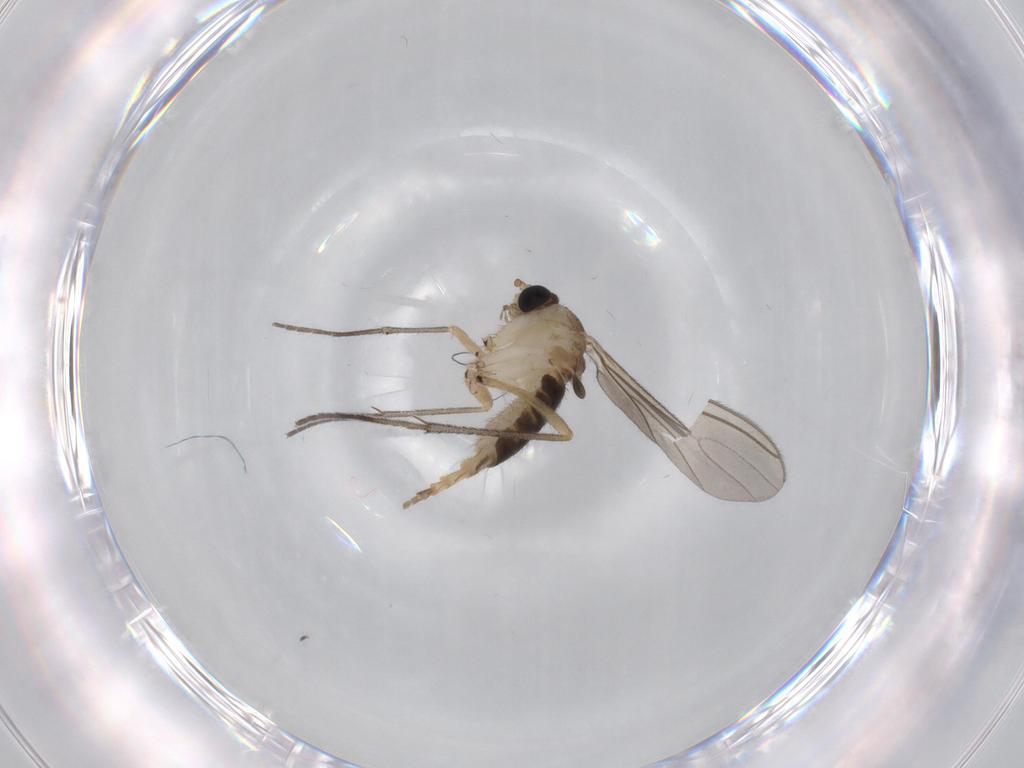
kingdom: Animalia
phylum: Arthropoda
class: Insecta
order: Diptera
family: Sciaridae
